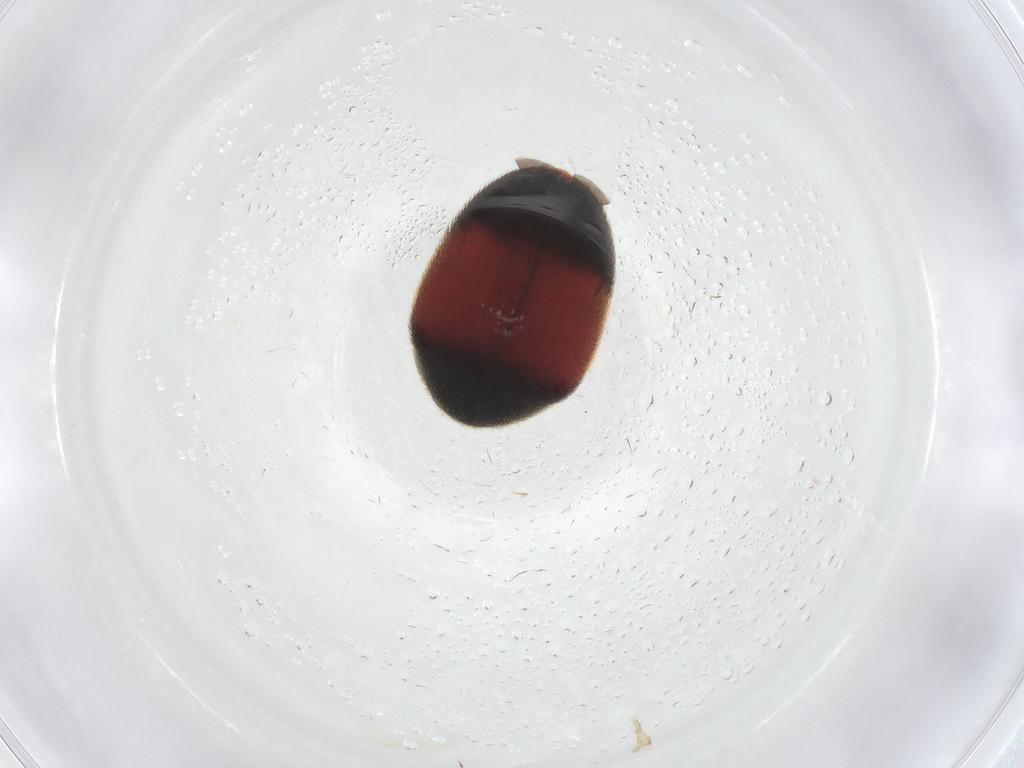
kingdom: Animalia
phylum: Arthropoda
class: Insecta
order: Coleoptera
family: Dermestidae
